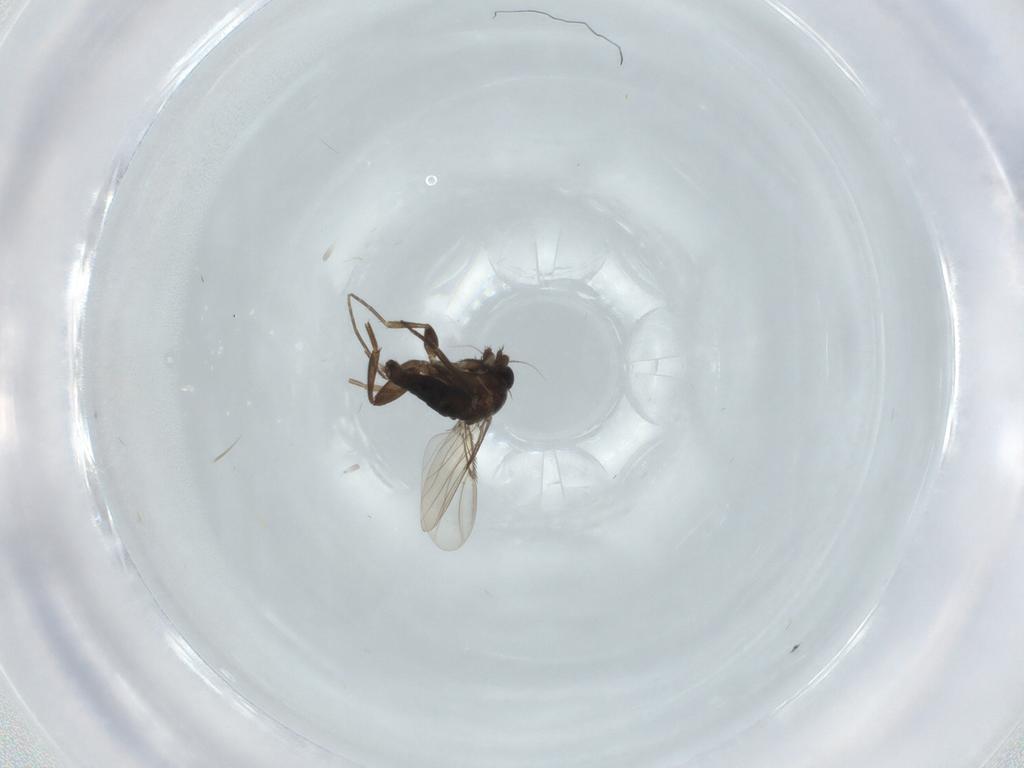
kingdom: Animalia
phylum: Arthropoda
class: Insecta
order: Diptera
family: Phoridae
